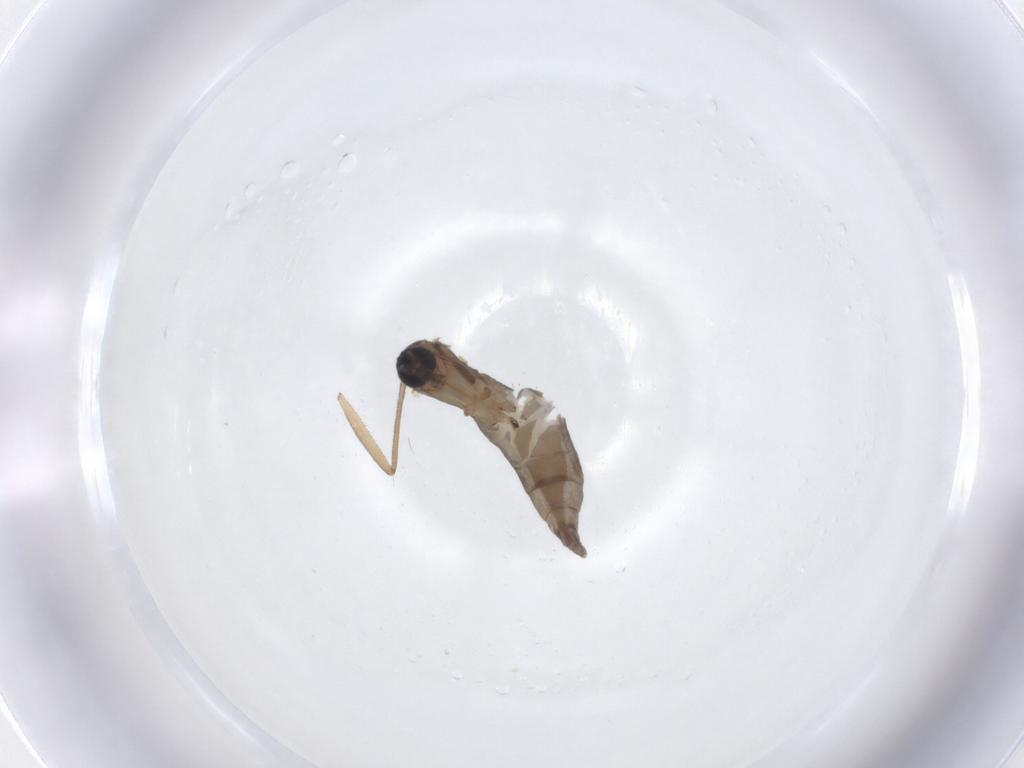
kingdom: Animalia
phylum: Arthropoda
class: Insecta
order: Diptera
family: Sciaridae
